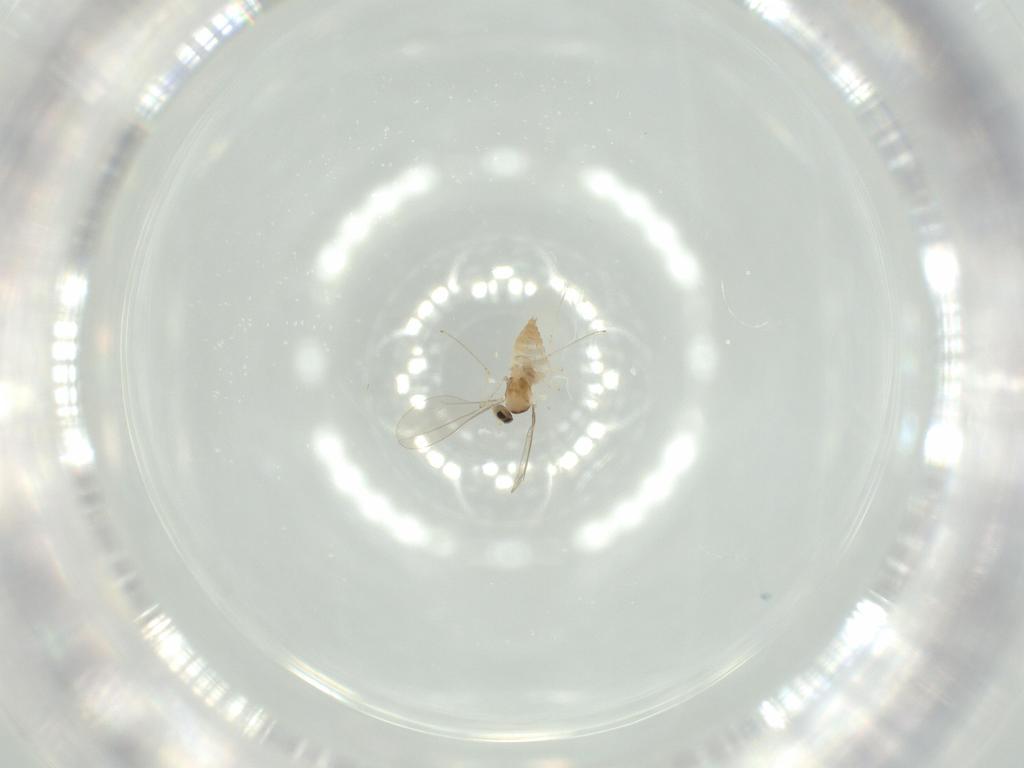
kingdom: Animalia
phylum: Arthropoda
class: Insecta
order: Diptera
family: Cecidomyiidae
